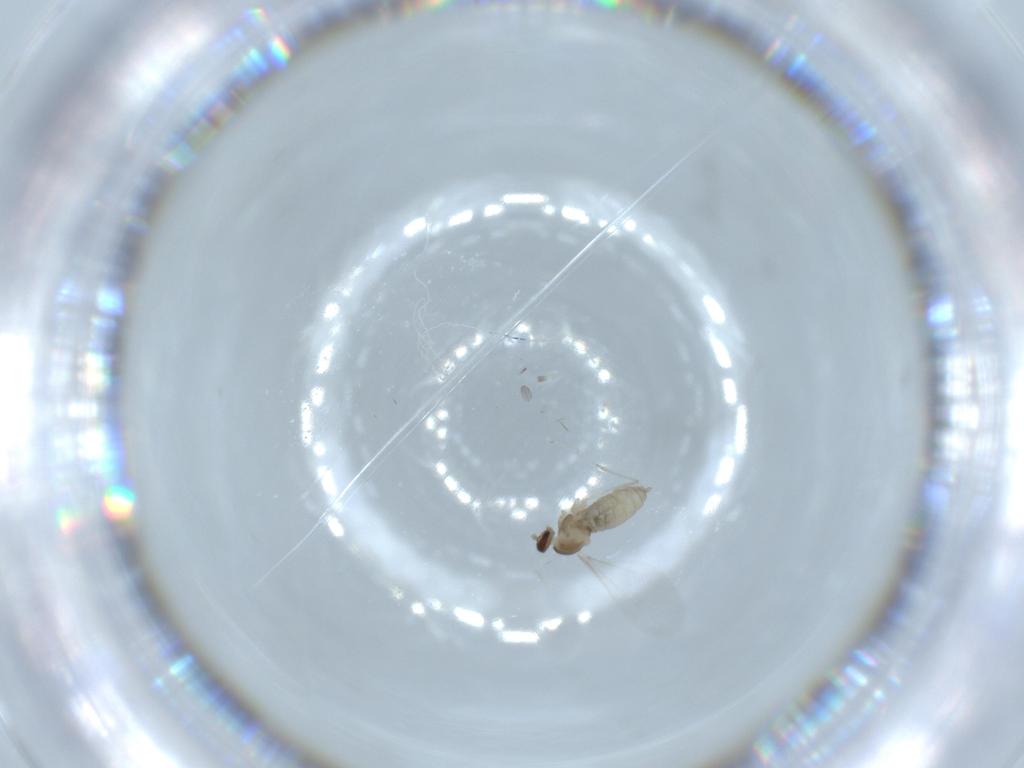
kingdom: Animalia
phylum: Arthropoda
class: Insecta
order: Diptera
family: Cecidomyiidae
